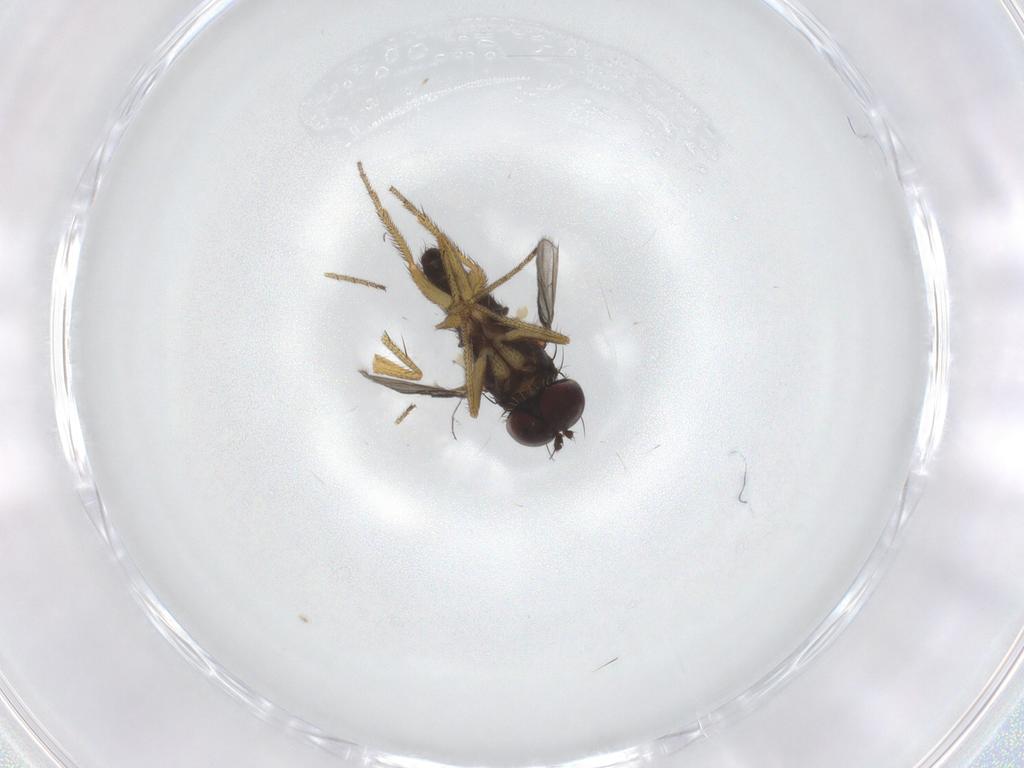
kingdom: Animalia
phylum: Arthropoda
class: Insecta
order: Diptera
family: Dolichopodidae
